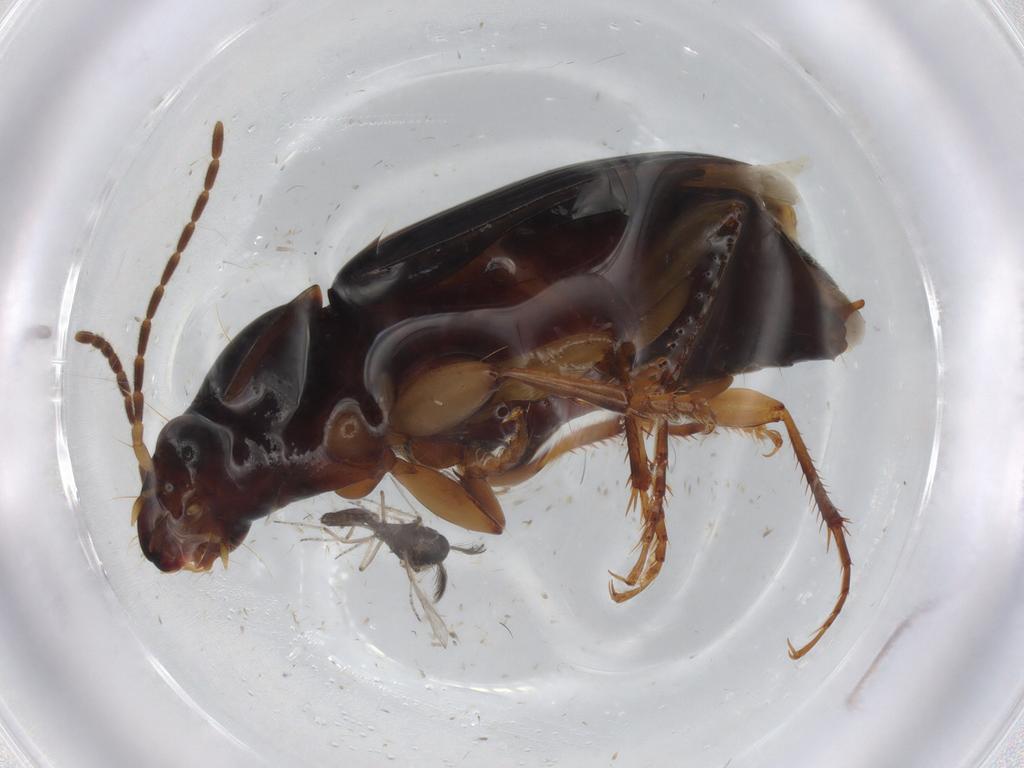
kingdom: Animalia
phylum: Arthropoda
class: Insecta
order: Diptera
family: Ceratopogonidae
